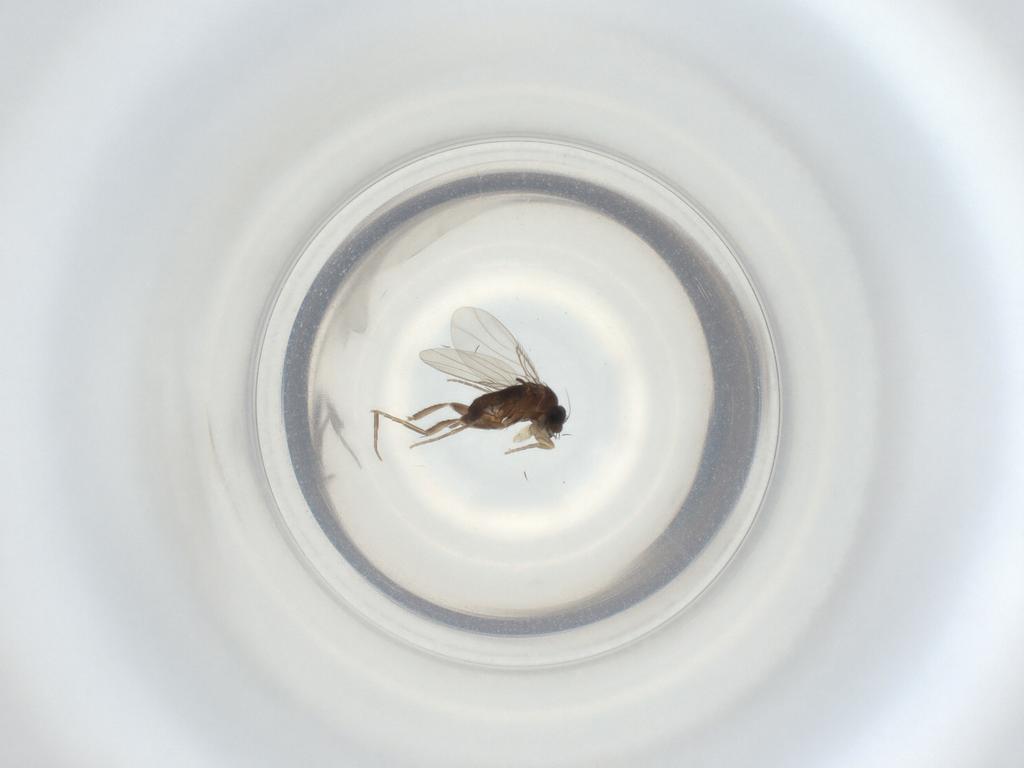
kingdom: Animalia
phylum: Arthropoda
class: Insecta
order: Diptera
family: Phoridae
